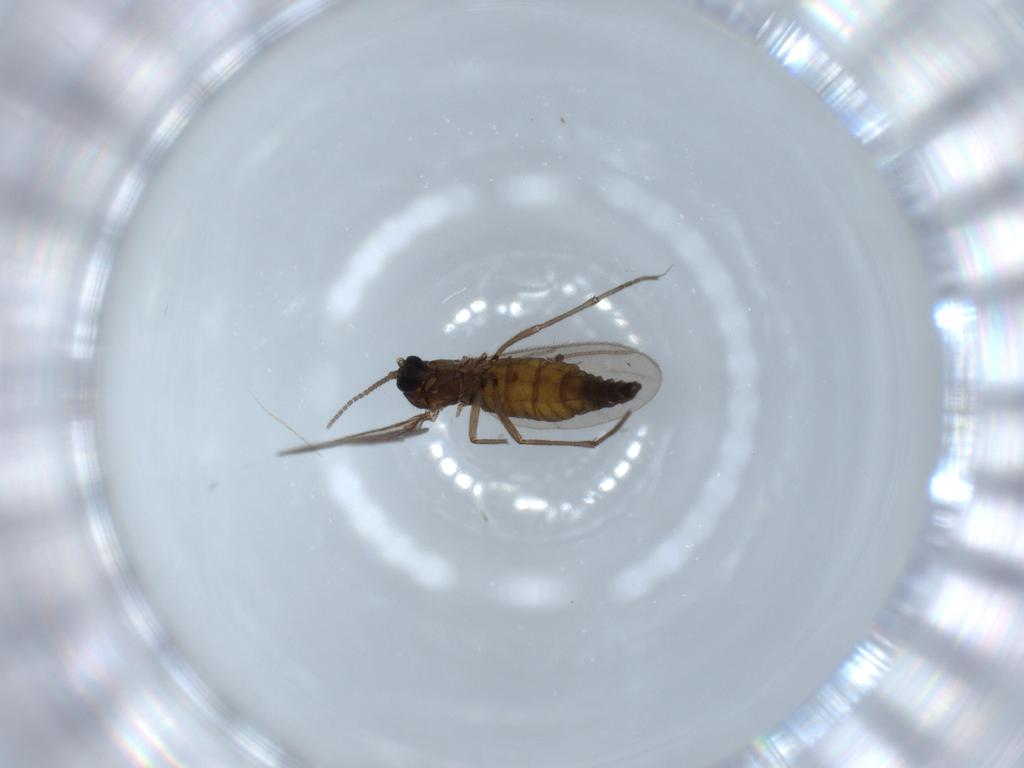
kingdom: Animalia
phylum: Arthropoda
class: Insecta
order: Diptera
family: Sciaridae
